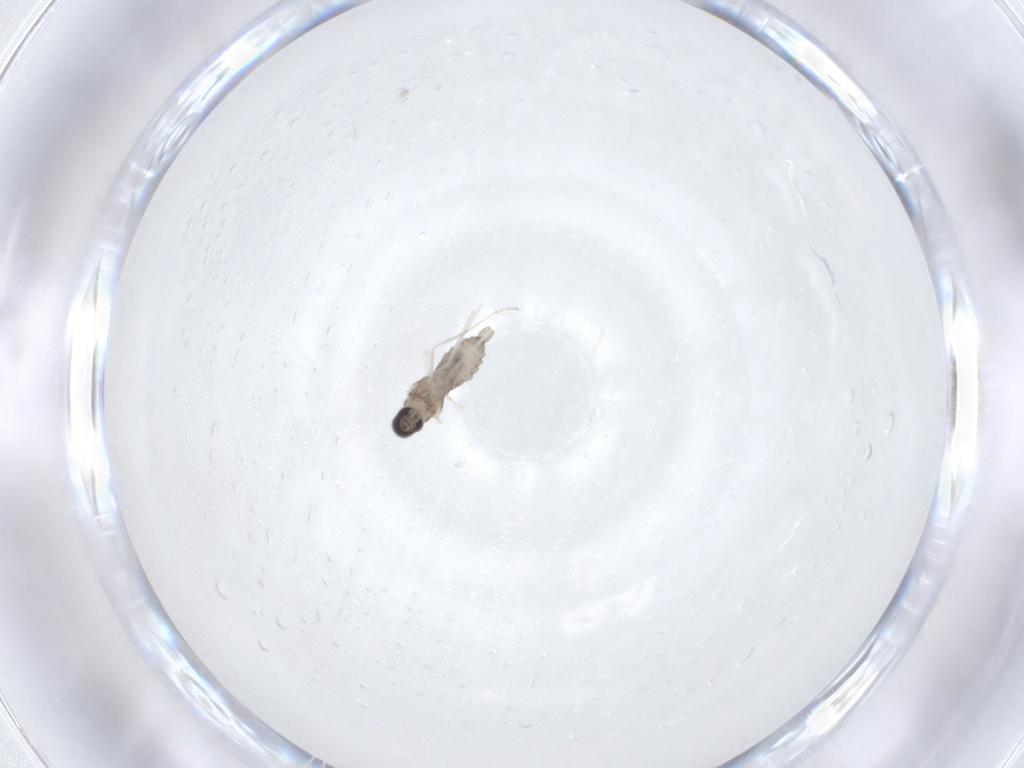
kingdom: Animalia
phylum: Arthropoda
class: Insecta
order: Diptera
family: Cecidomyiidae
